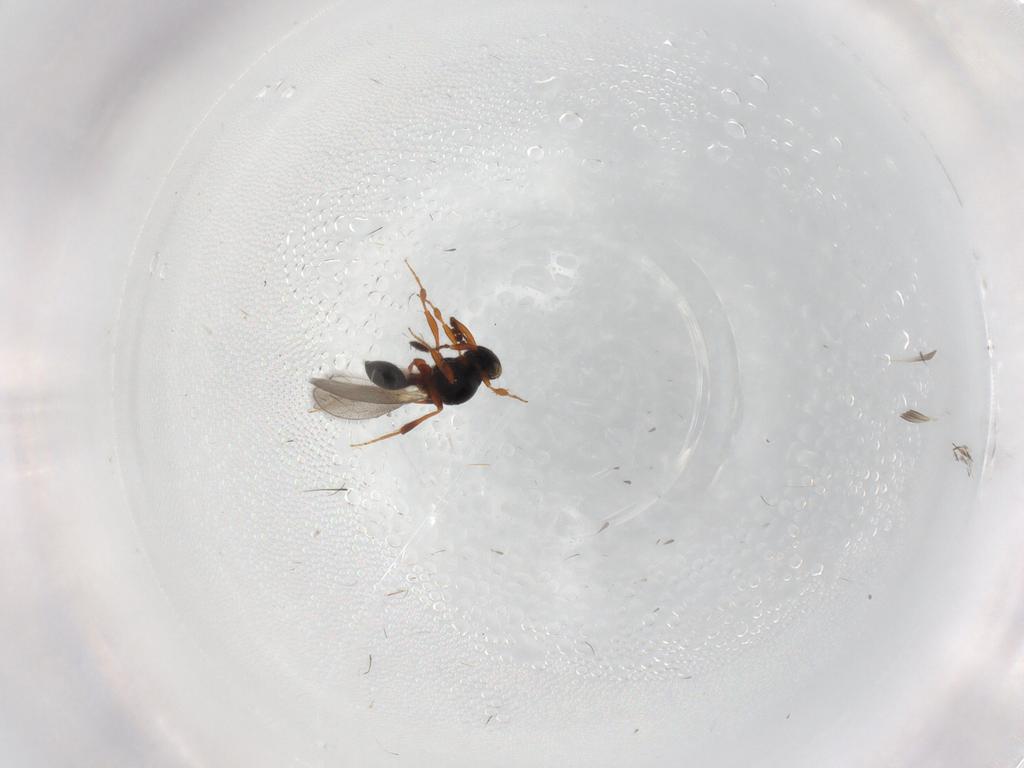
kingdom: Animalia
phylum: Arthropoda
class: Insecta
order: Hymenoptera
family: Platygastridae
